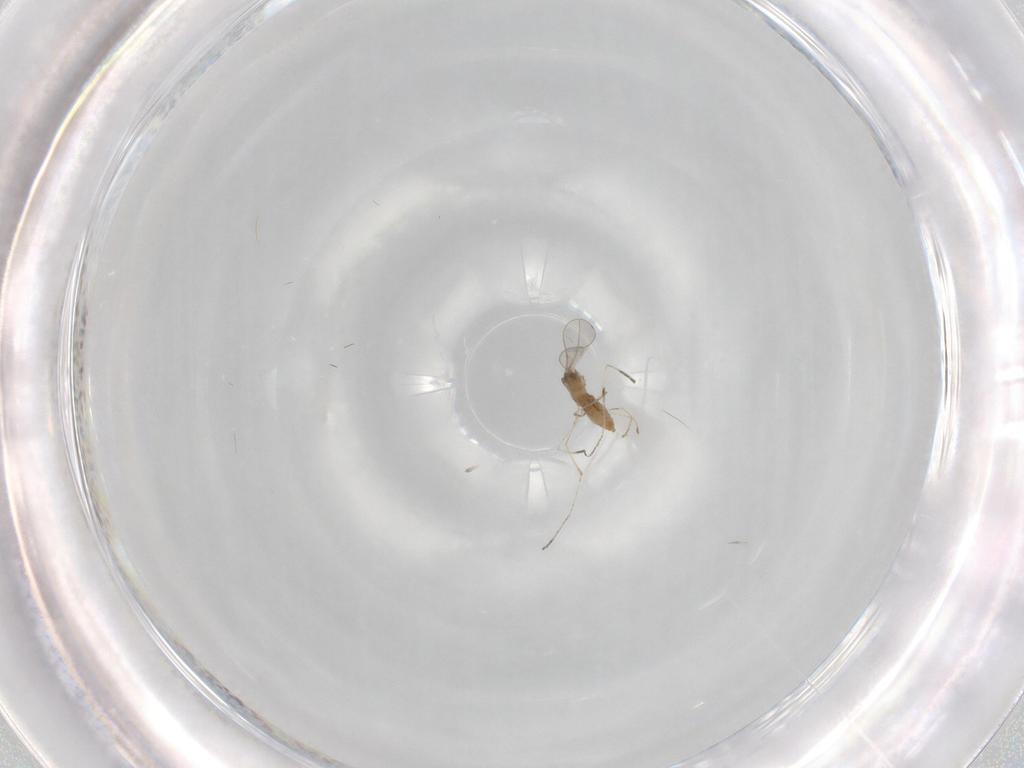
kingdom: Animalia
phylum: Arthropoda
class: Insecta
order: Diptera
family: Cecidomyiidae
